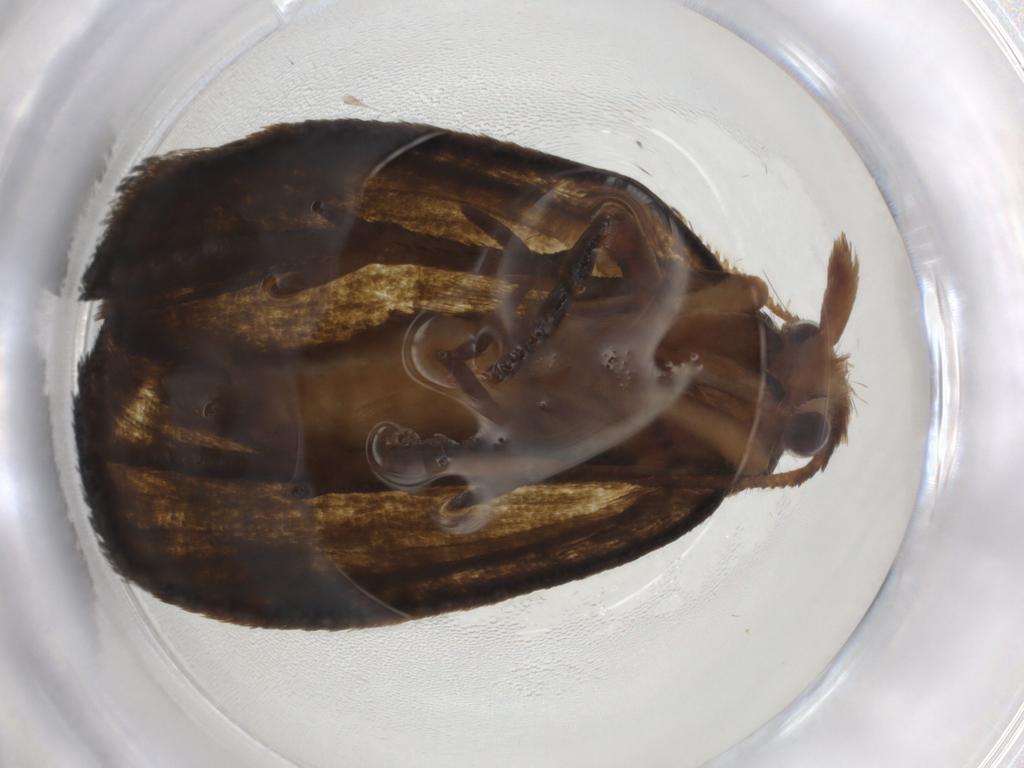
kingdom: Animalia
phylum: Arthropoda
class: Insecta
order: Lepidoptera
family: Geometridae
